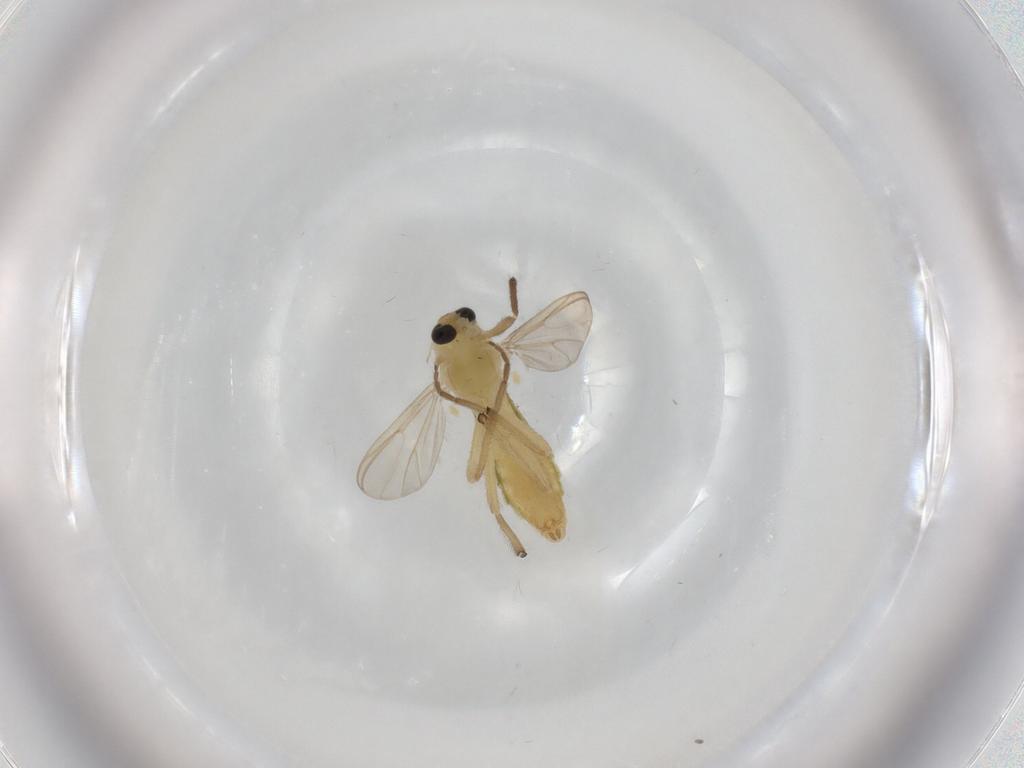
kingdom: Animalia
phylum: Arthropoda
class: Insecta
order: Diptera
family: Chironomidae
